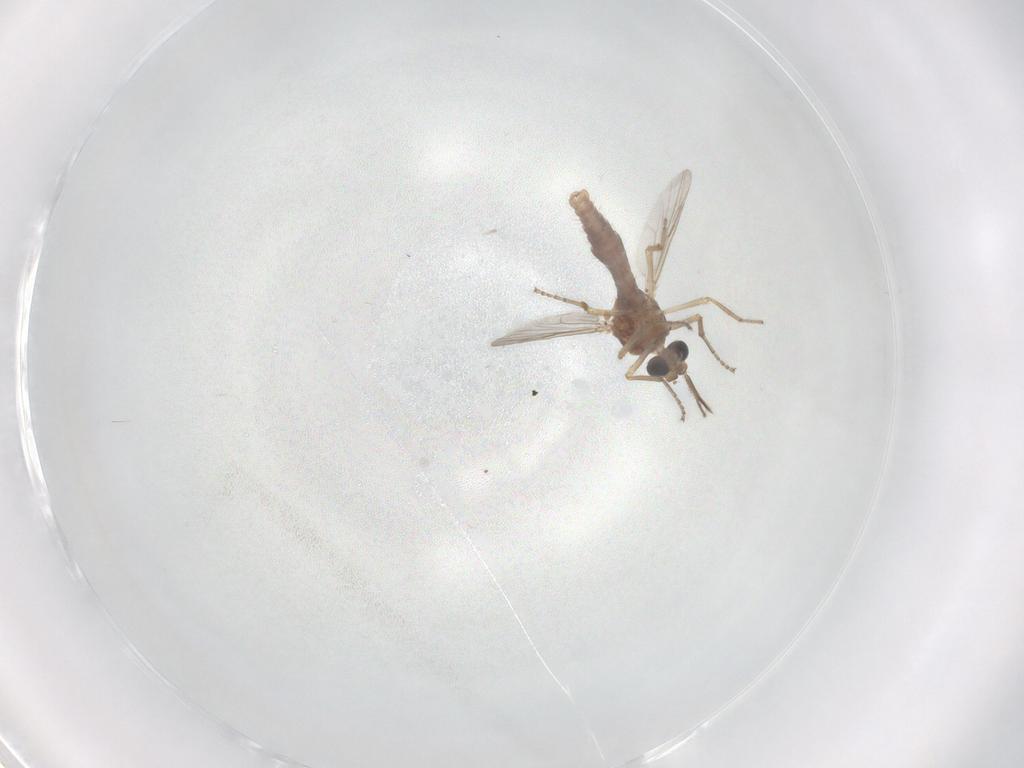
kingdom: Animalia
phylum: Arthropoda
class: Insecta
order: Diptera
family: Ceratopogonidae
